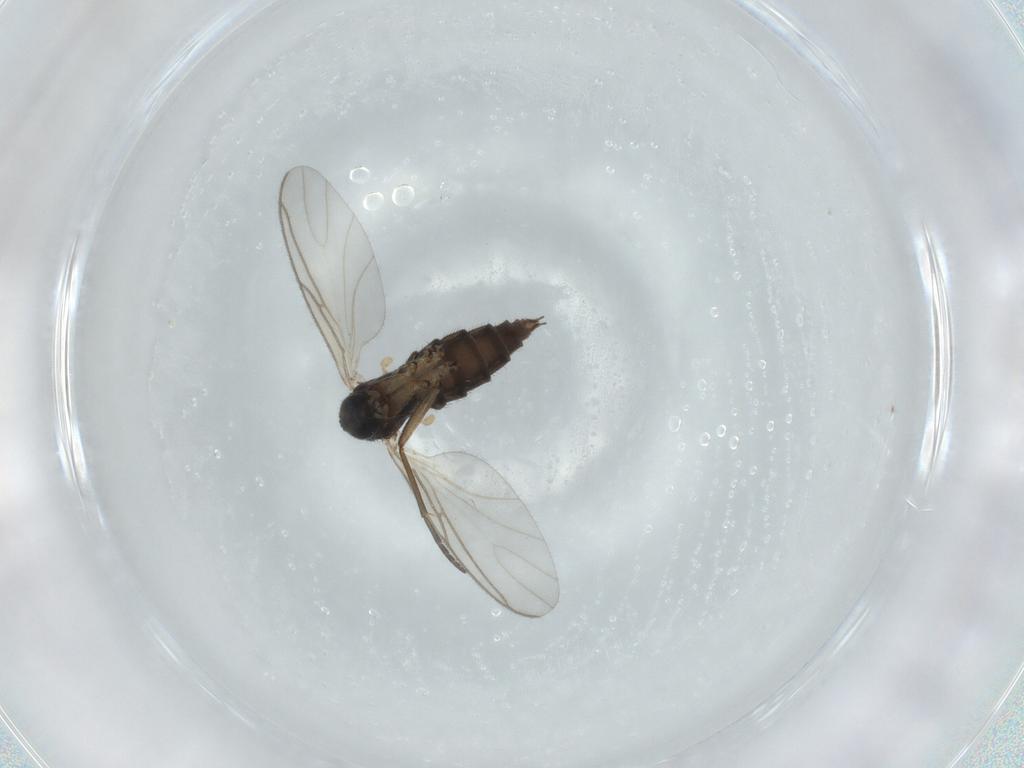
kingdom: Animalia
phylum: Arthropoda
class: Insecta
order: Diptera
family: Sciaridae
